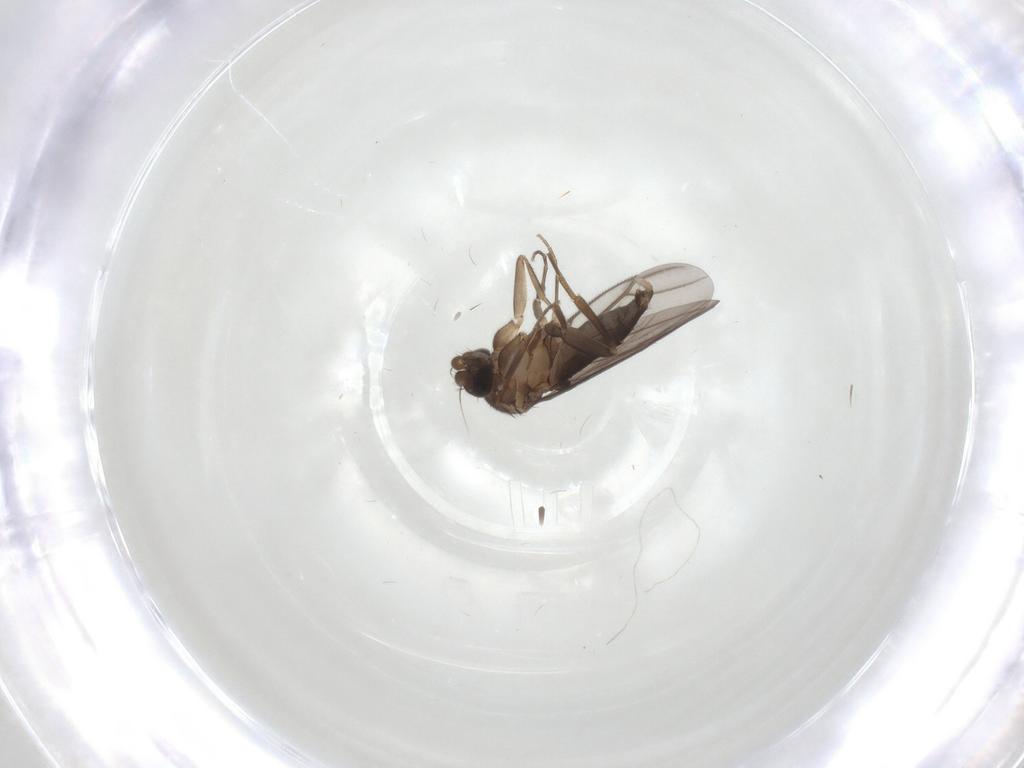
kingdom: Animalia
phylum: Arthropoda
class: Insecta
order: Diptera
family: Phoridae
